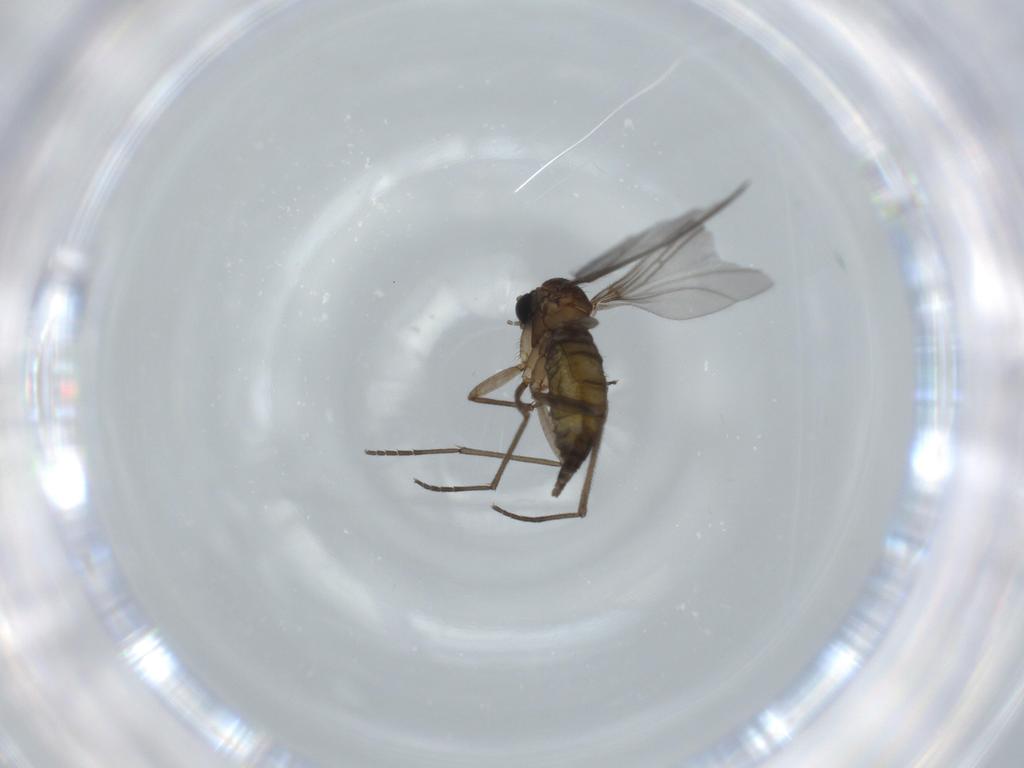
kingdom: Animalia
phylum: Arthropoda
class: Insecta
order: Diptera
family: Sciaridae
